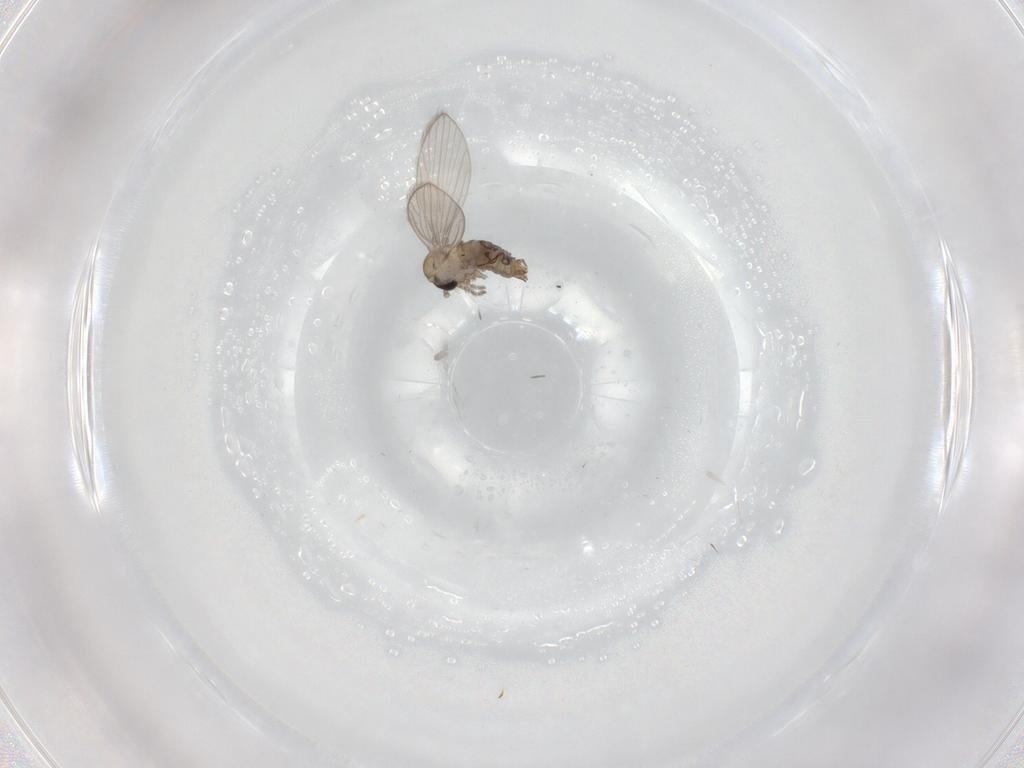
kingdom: Animalia
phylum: Arthropoda
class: Insecta
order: Diptera
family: Psychodidae
